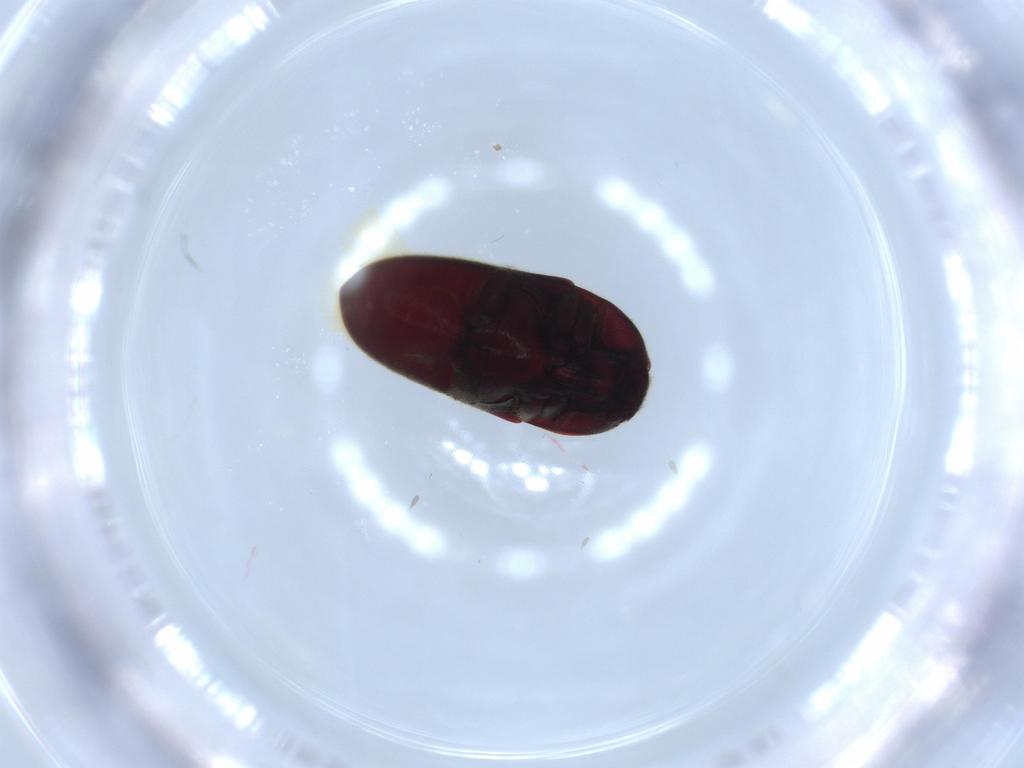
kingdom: Animalia
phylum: Arthropoda
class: Insecta
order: Coleoptera
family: Throscidae
